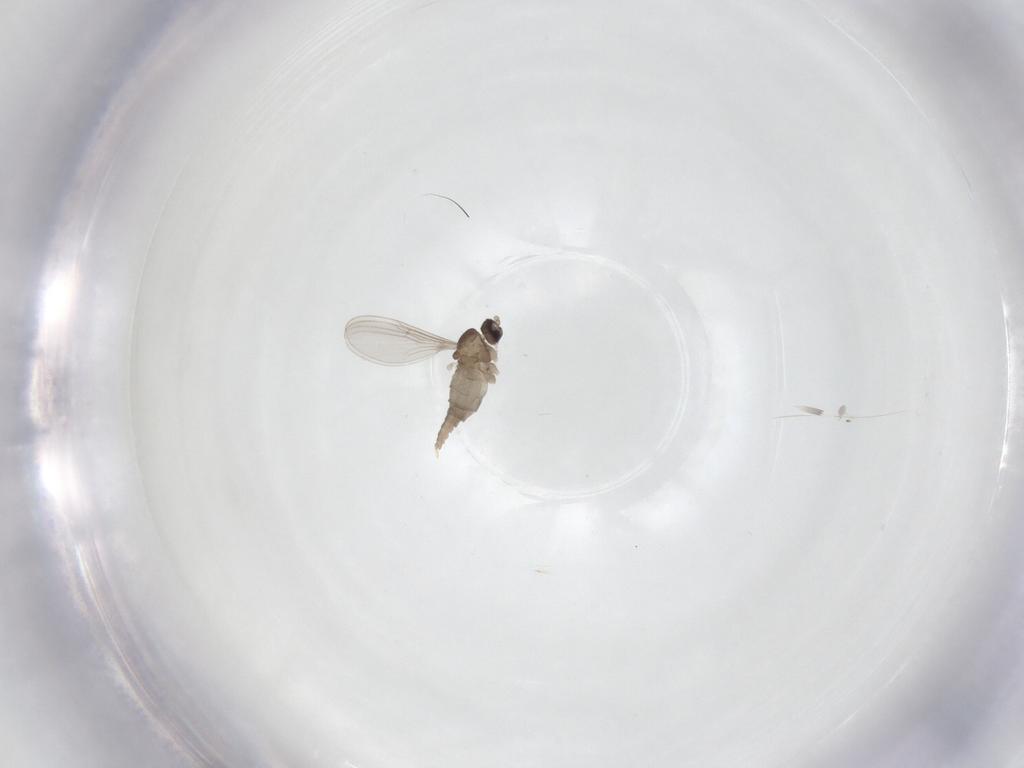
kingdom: Animalia
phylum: Arthropoda
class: Insecta
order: Diptera
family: Cecidomyiidae
